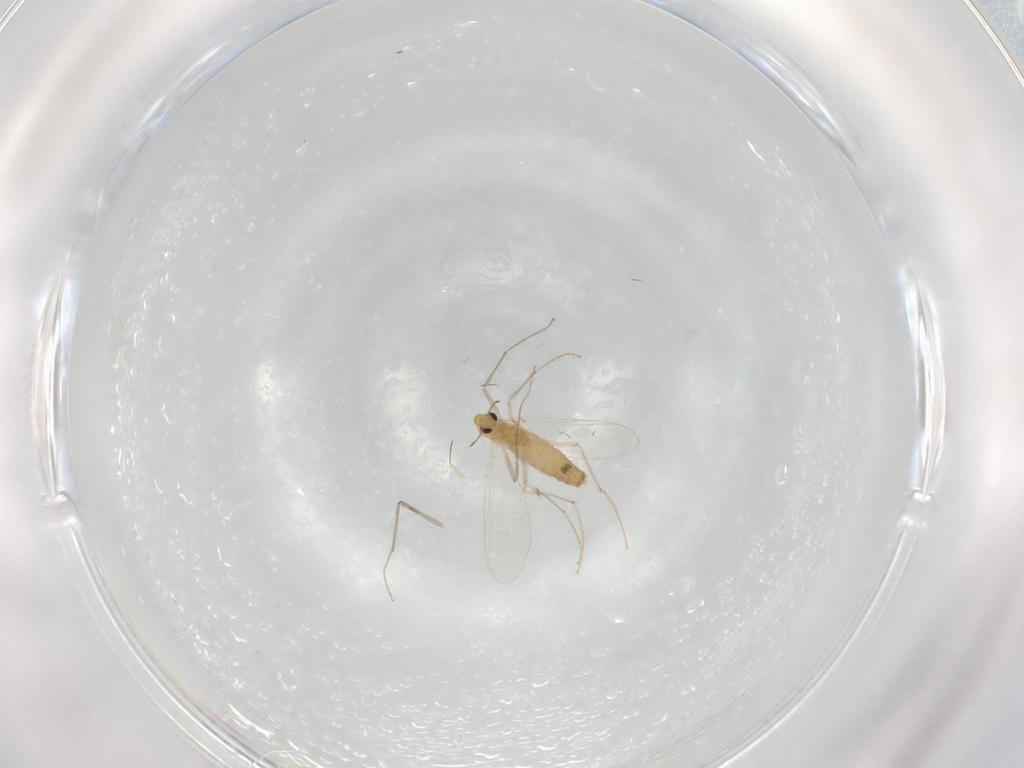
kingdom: Animalia
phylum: Arthropoda
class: Insecta
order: Diptera
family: Chironomidae
